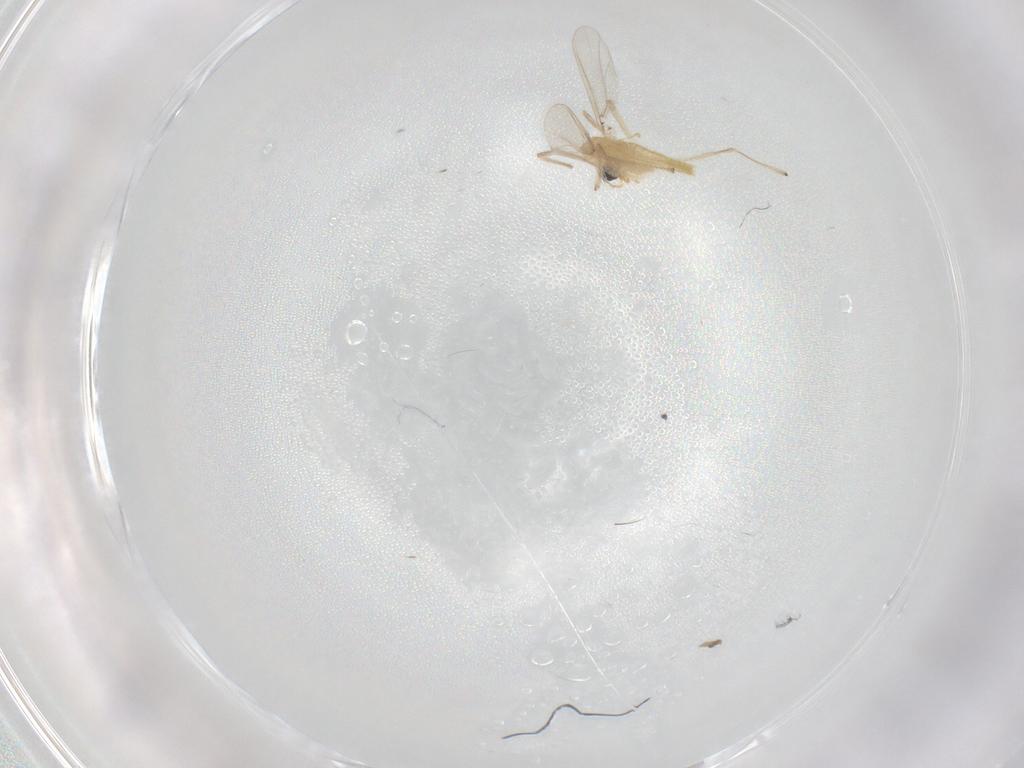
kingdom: Animalia
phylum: Arthropoda
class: Insecta
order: Diptera
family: Chironomidae
